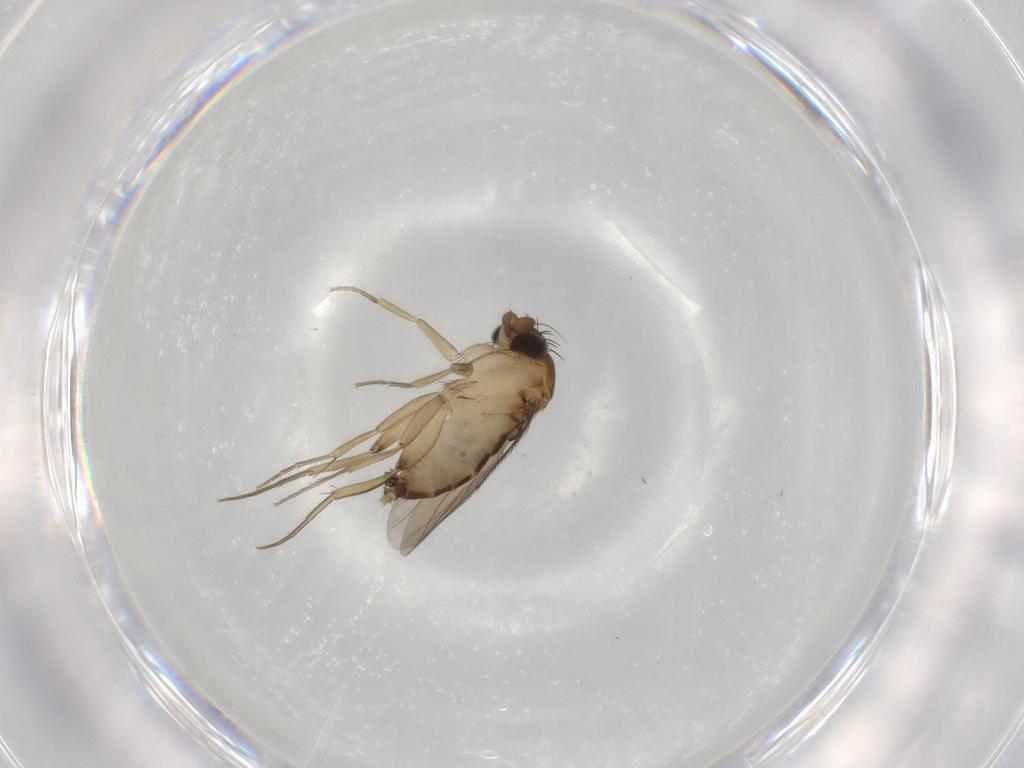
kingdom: Animalia
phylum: Arthropoda
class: Insecta
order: Diptera
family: Phoridae
